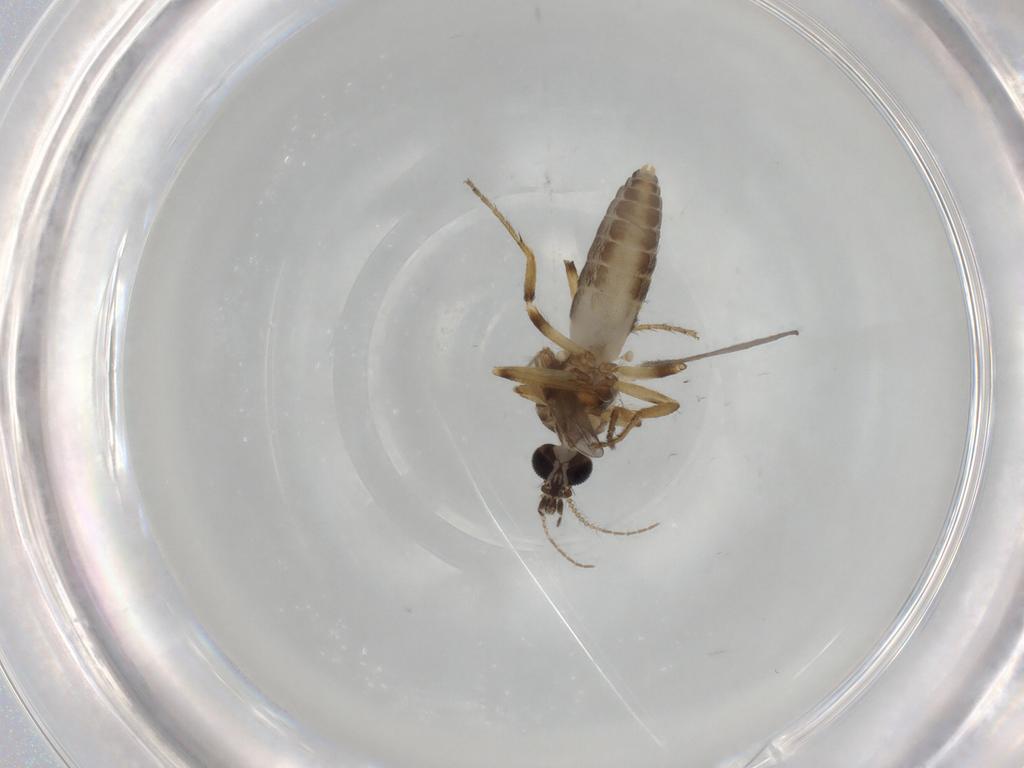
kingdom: Animalia
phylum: Arthropoda
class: Insecta
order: Diptera
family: Ceratopogonidae
